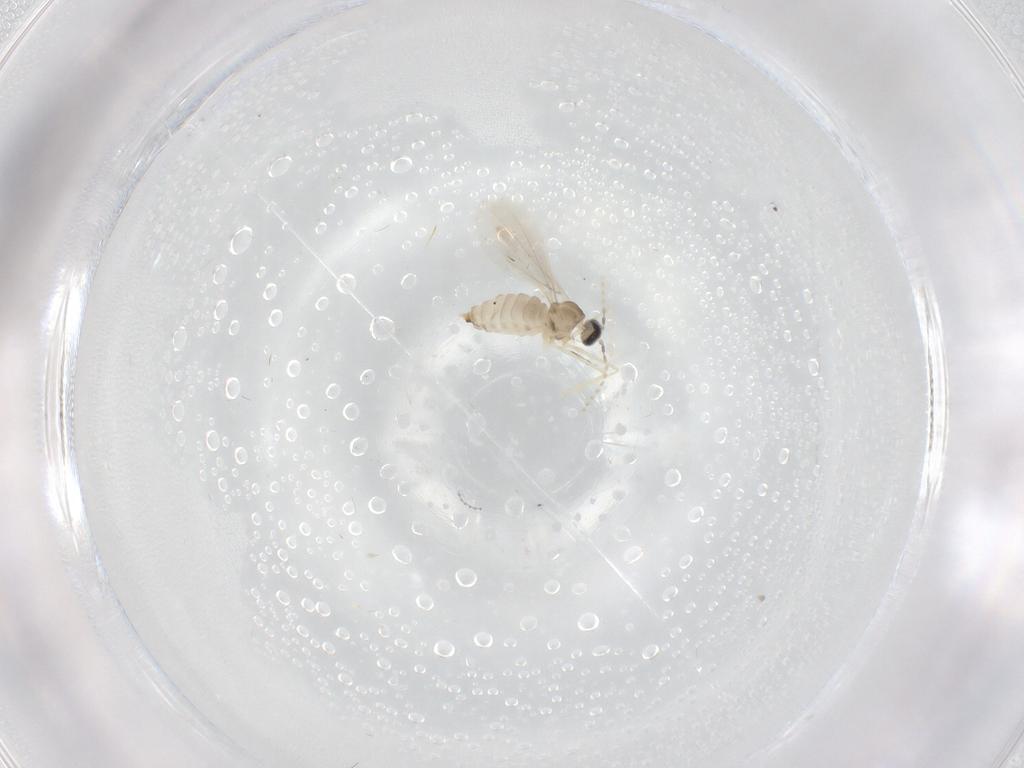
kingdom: Animalia
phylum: Arthropoda
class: Insecta
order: Diptera
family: Cecidomyiidae
